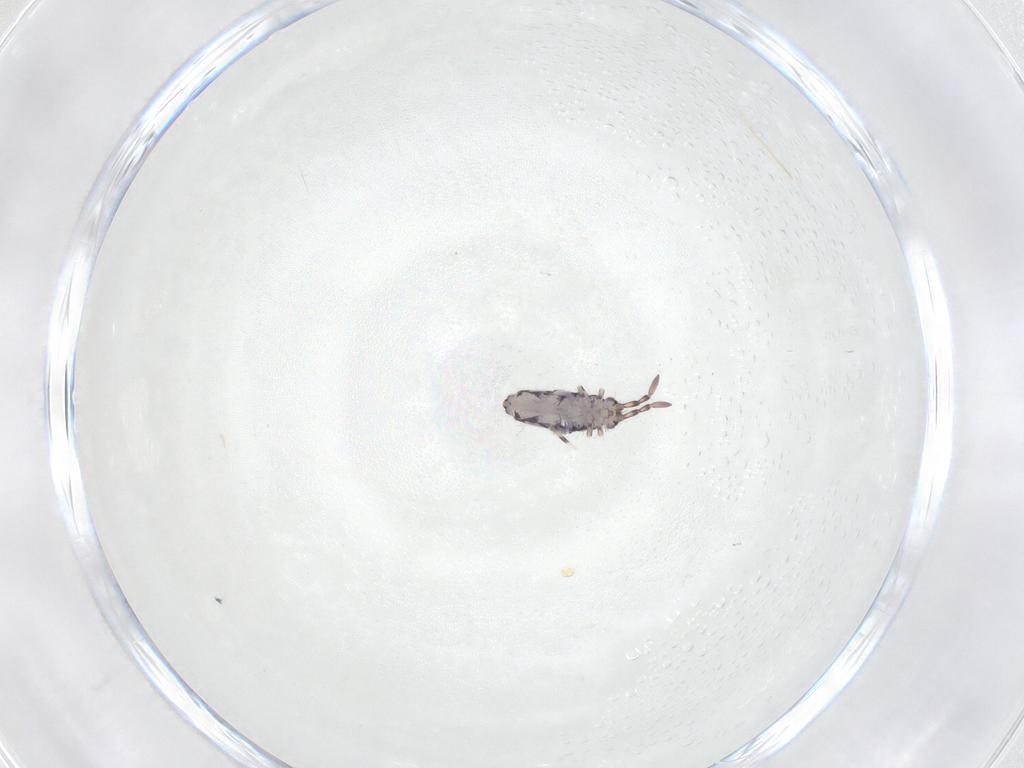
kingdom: Animalia
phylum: Arthropoda
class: Collembola
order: Entomobryomorpha
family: Entomobryidae
